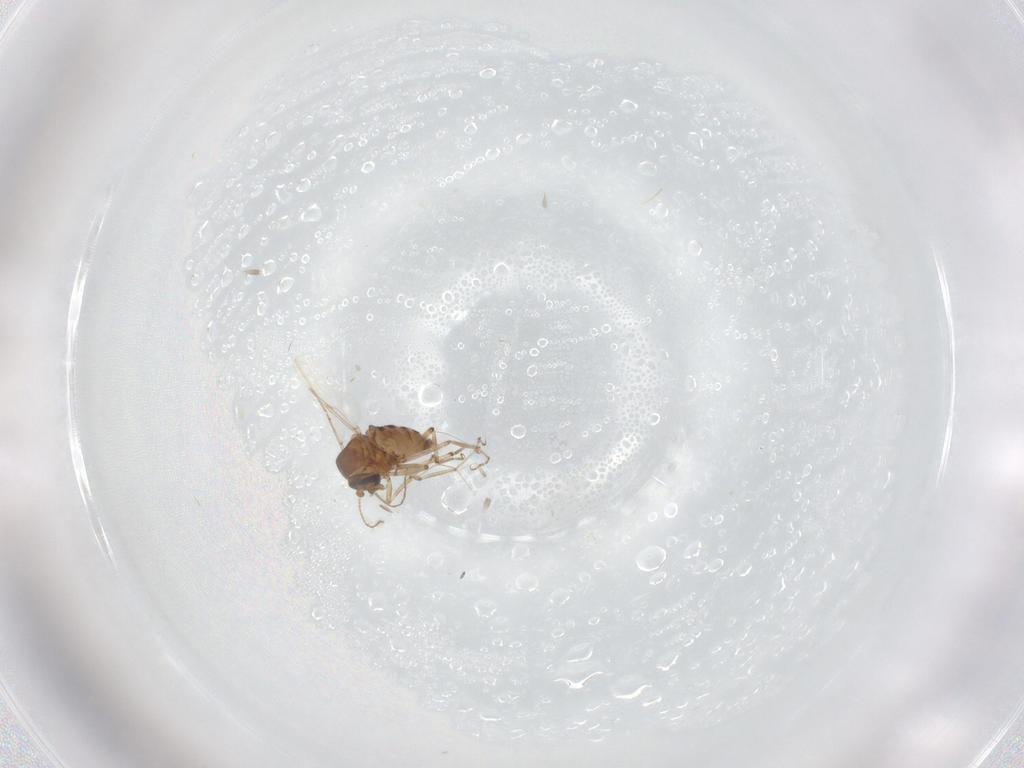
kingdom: Animalia
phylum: Arthropoda
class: Insecta
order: Diptera
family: Ceratopogonidae
